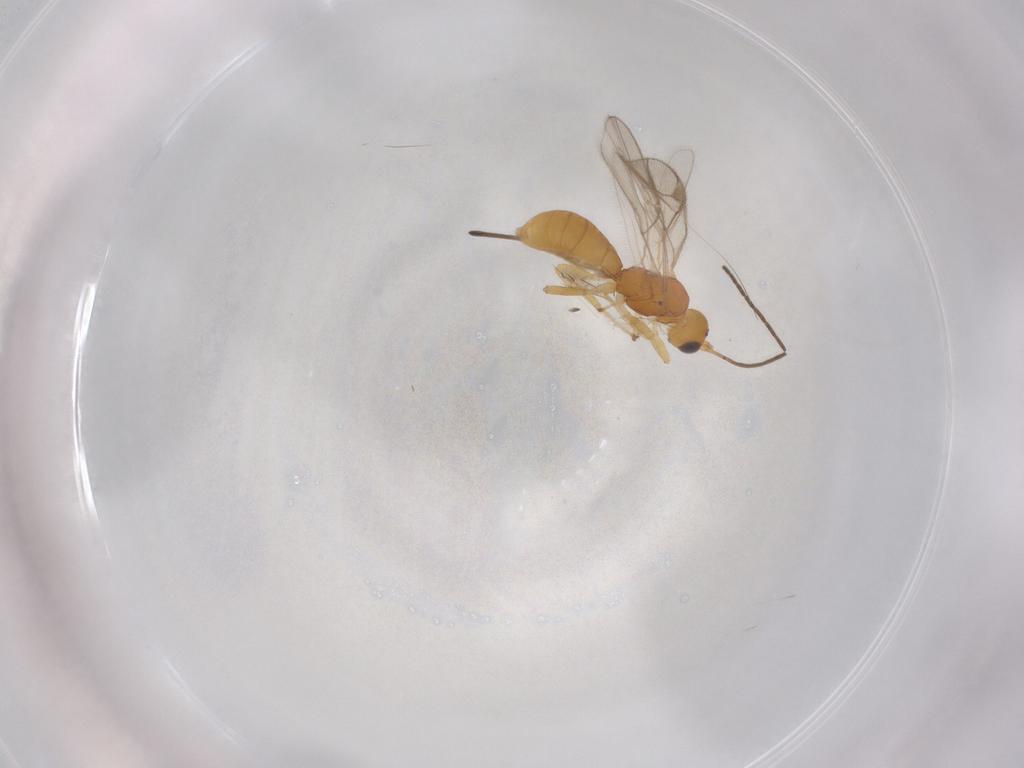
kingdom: Animalia
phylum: Arthropoda
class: Insecta
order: Hymenoptera
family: Braconidae
